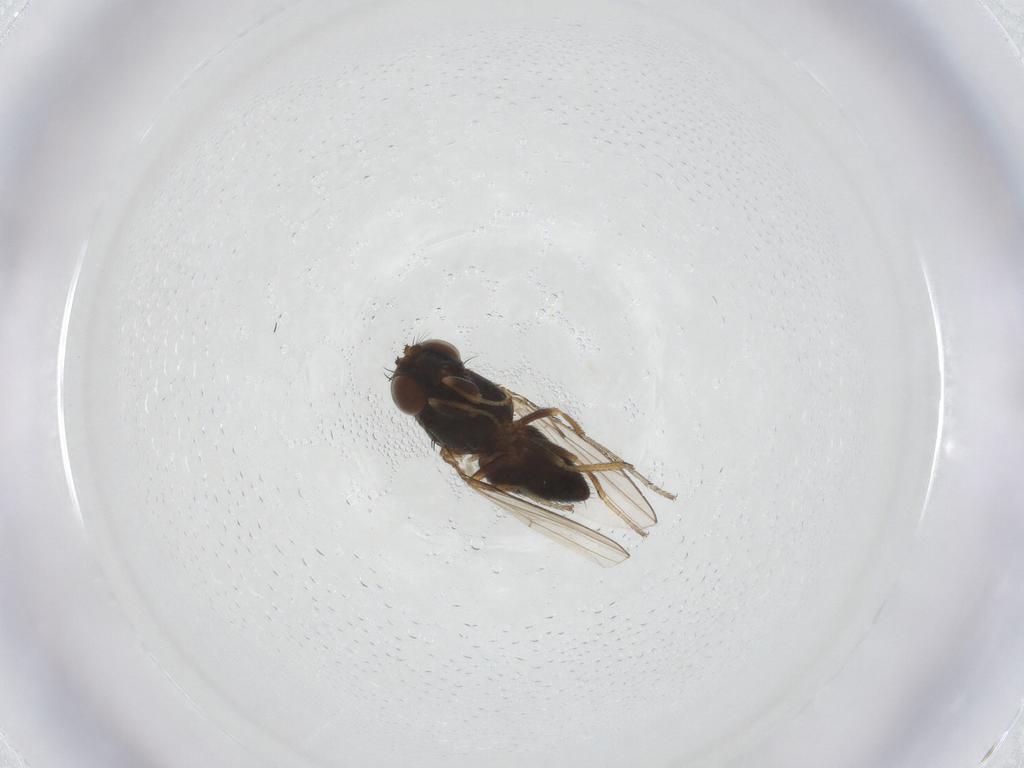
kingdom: Animalia
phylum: Arthropoda
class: Insecta
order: Diptera
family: Ephydridae
